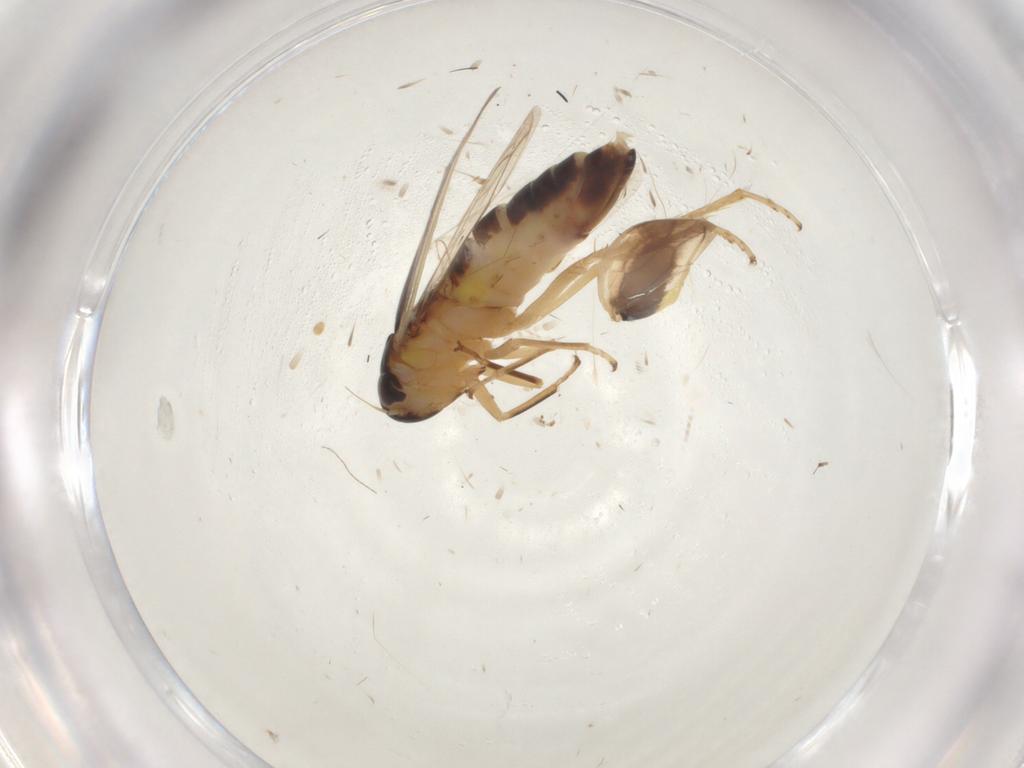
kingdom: Animalia
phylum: Arthropoda
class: Insecta
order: Hemiptera
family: Cicadellidae
